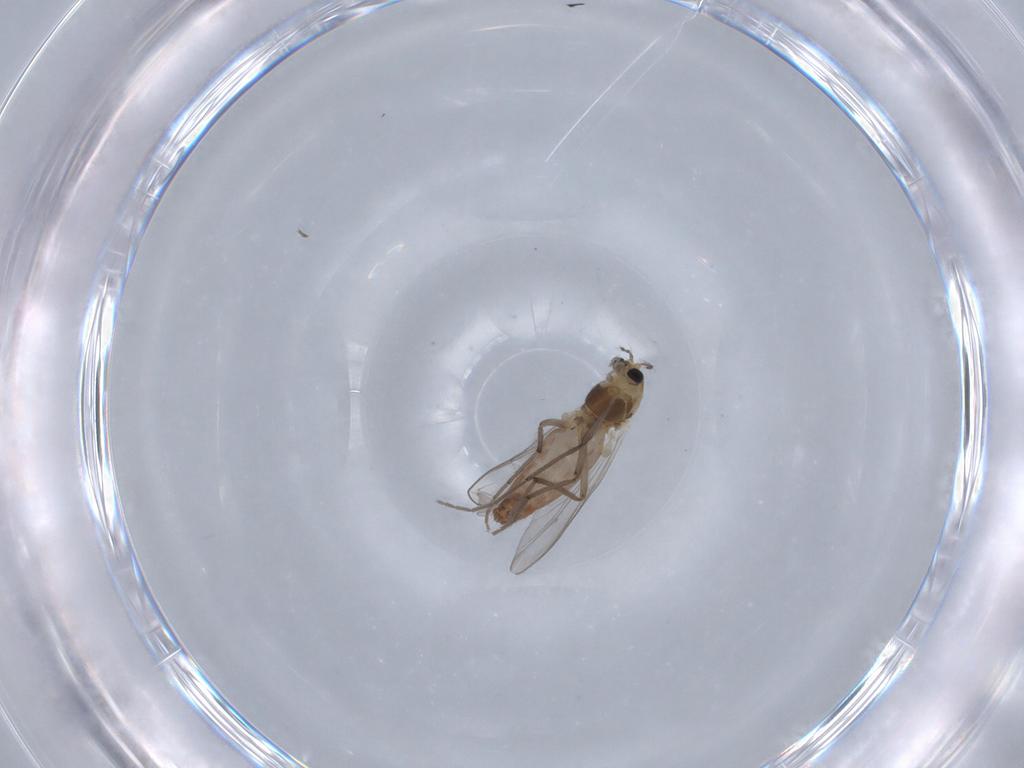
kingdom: Animalia
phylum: Arthropoda
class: Insecta
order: Diptera
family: Chironomidae
